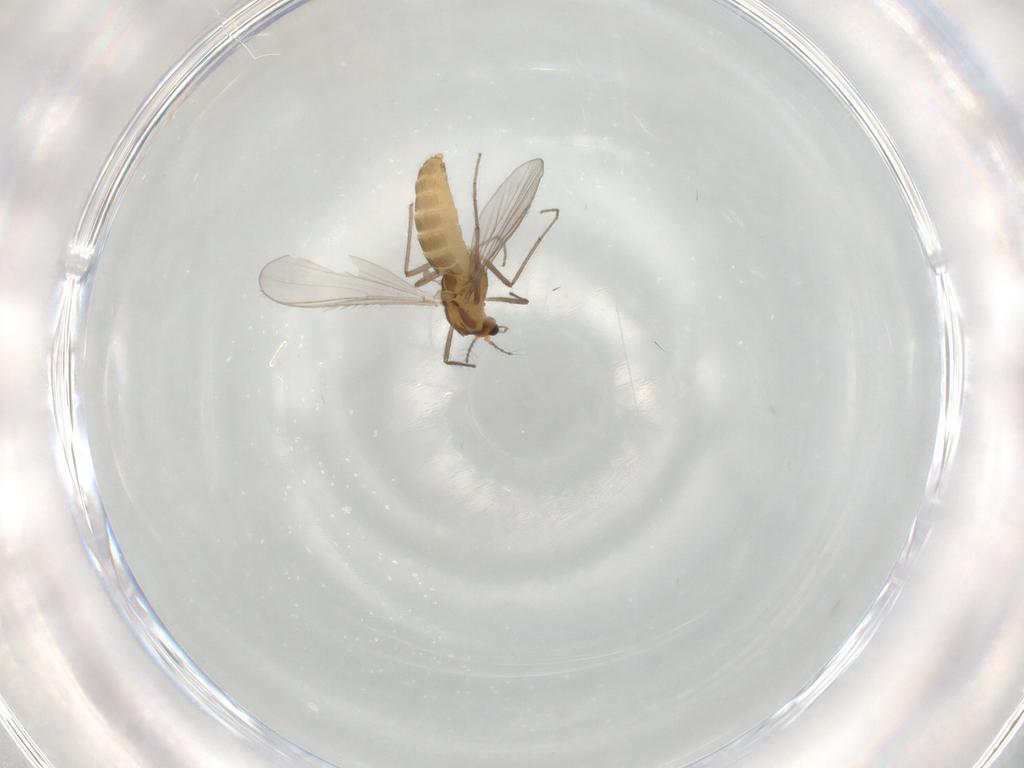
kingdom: Animalia
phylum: Arthropoda
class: Insecta
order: Diptera
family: Chironomidae
